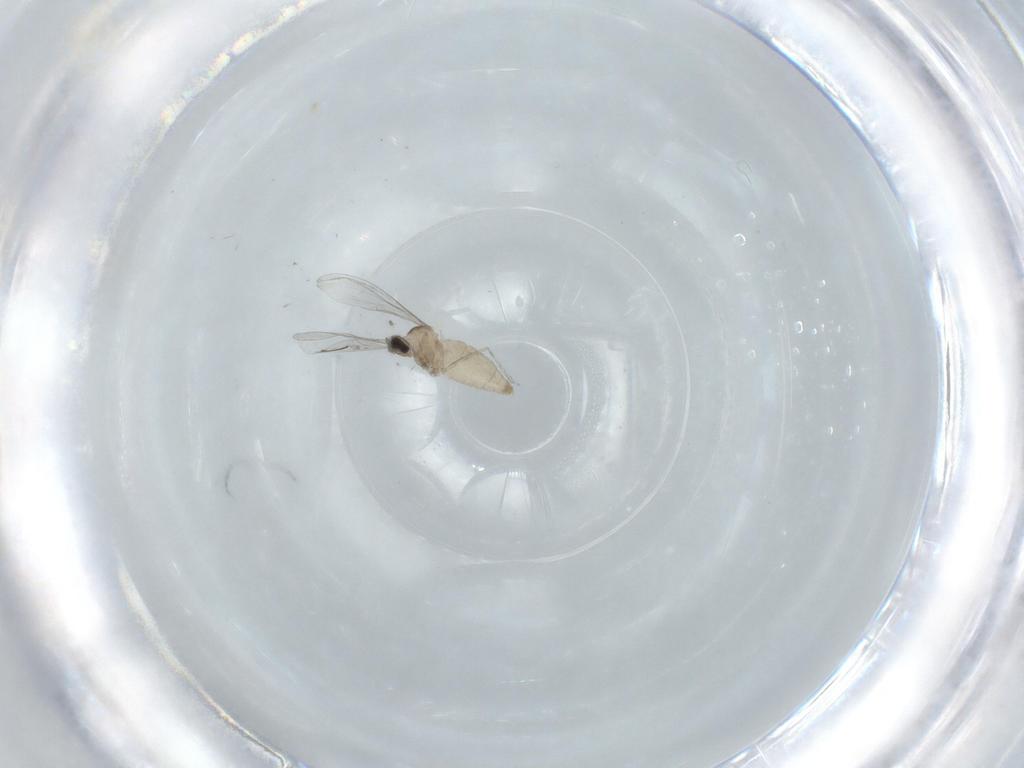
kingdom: Animalia
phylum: Arthropoda
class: Insecta
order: Diptera
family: Cecidomyiidae
